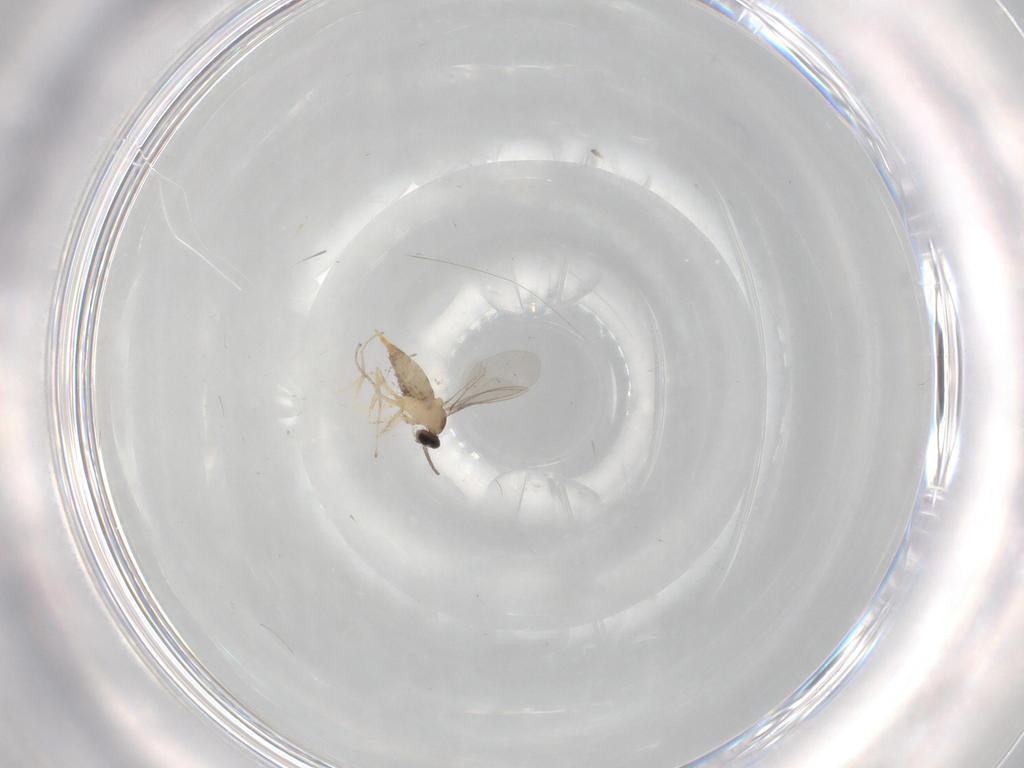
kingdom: Animalia
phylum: Arthropoda
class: Insecta
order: Diptera
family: Cecidomyiidae
